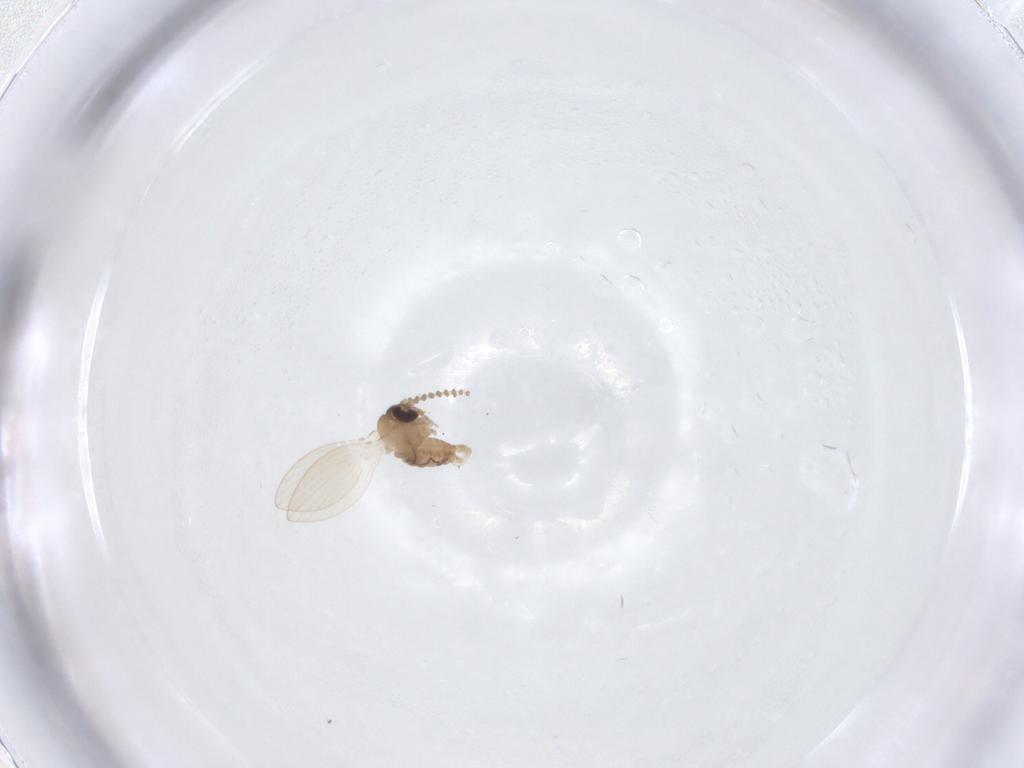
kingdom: Animalia
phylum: Arthropoda
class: Insecta
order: Diptera
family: Psychodidae
